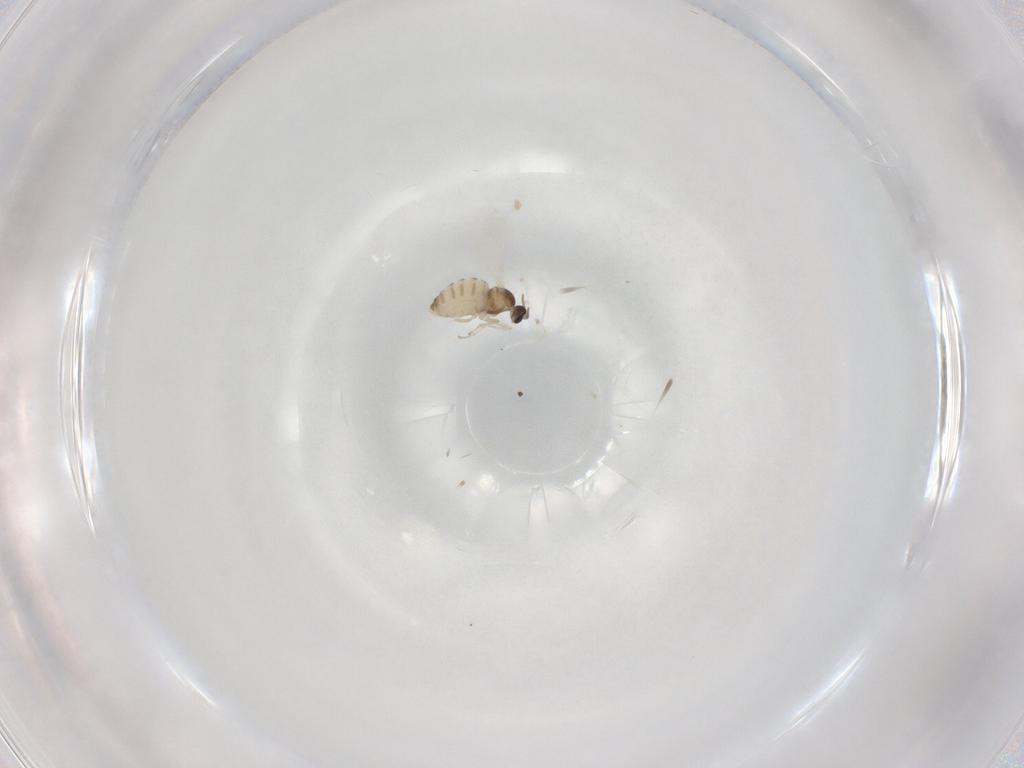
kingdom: Animalia
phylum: Arthropoda
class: Insecta
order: Diptera
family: Cecidomyiidae
